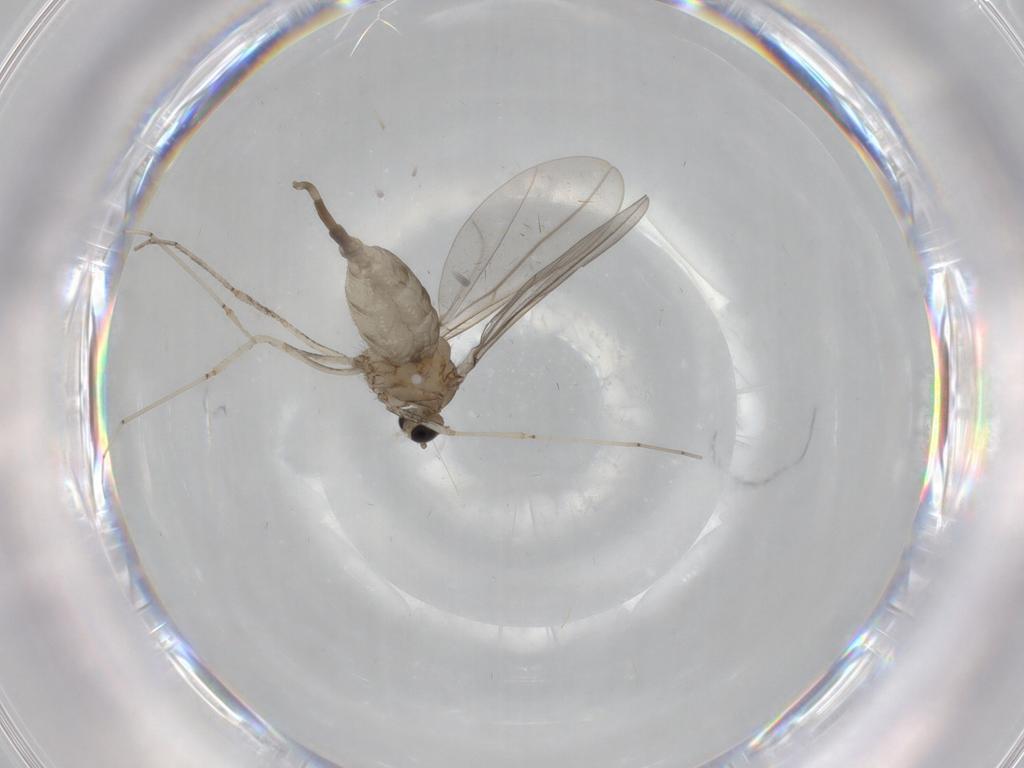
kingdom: Animalia
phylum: Arthropoda
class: Insecta
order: Diptera
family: Cecidomyiidae
